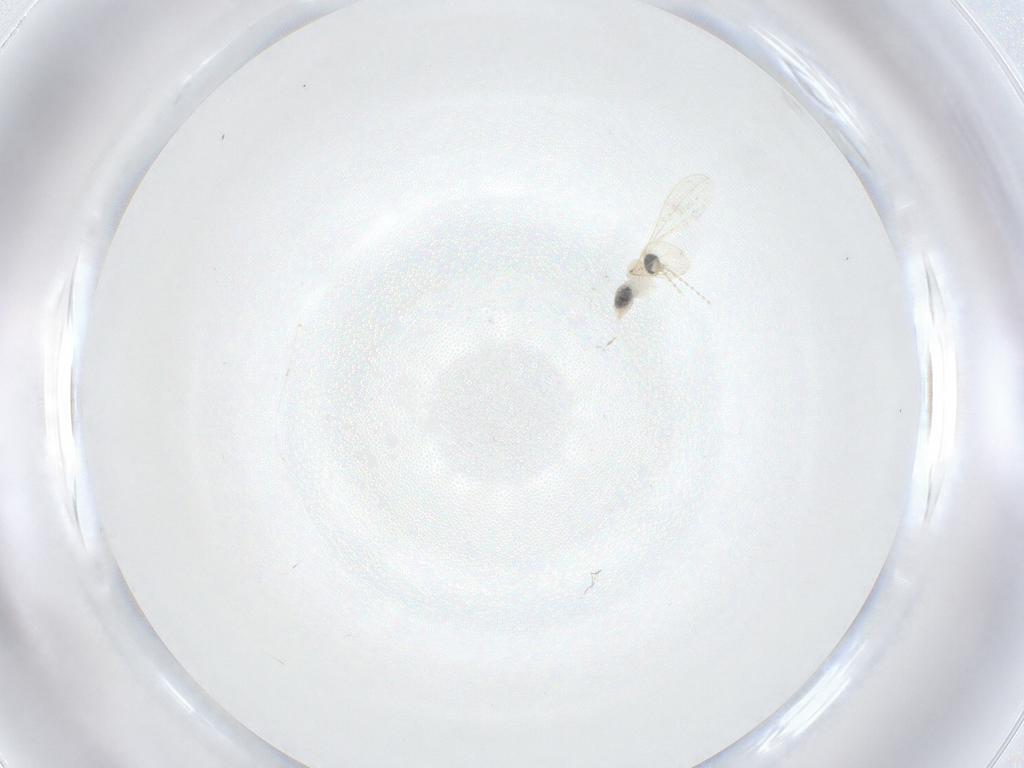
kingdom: Animalia
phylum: Arthropoda
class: Insecta
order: Diptera
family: Cecidomyiidae
